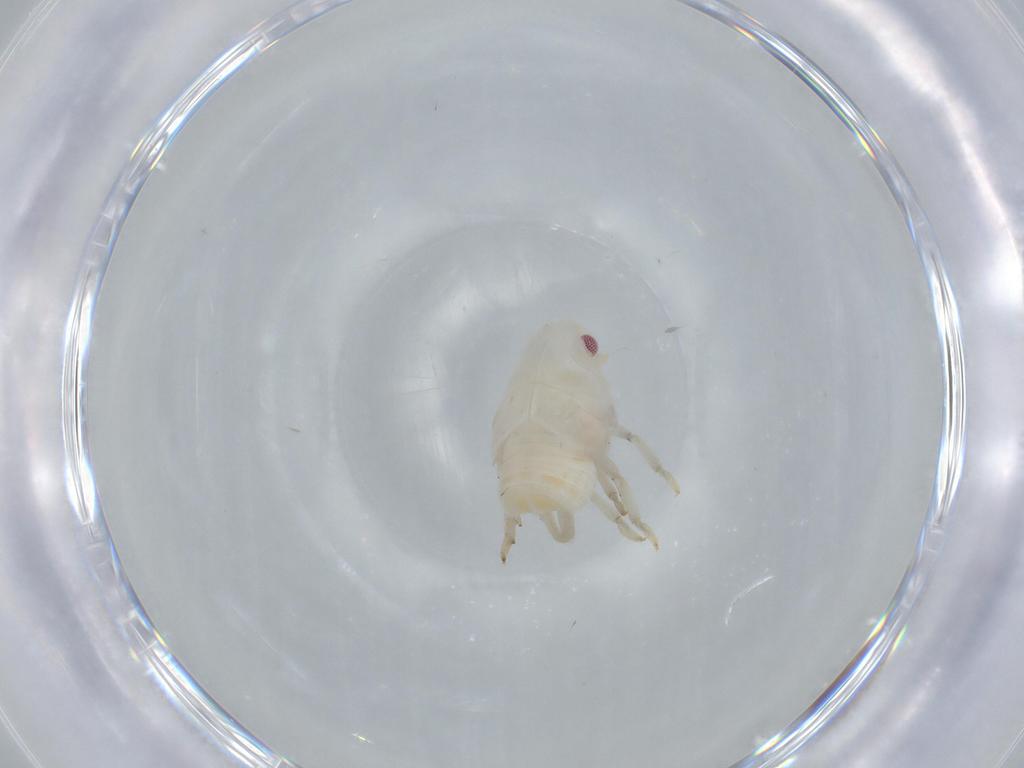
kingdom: Animalia
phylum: Arthropoda
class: Insecta
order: Hemiptera
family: Flatidae
